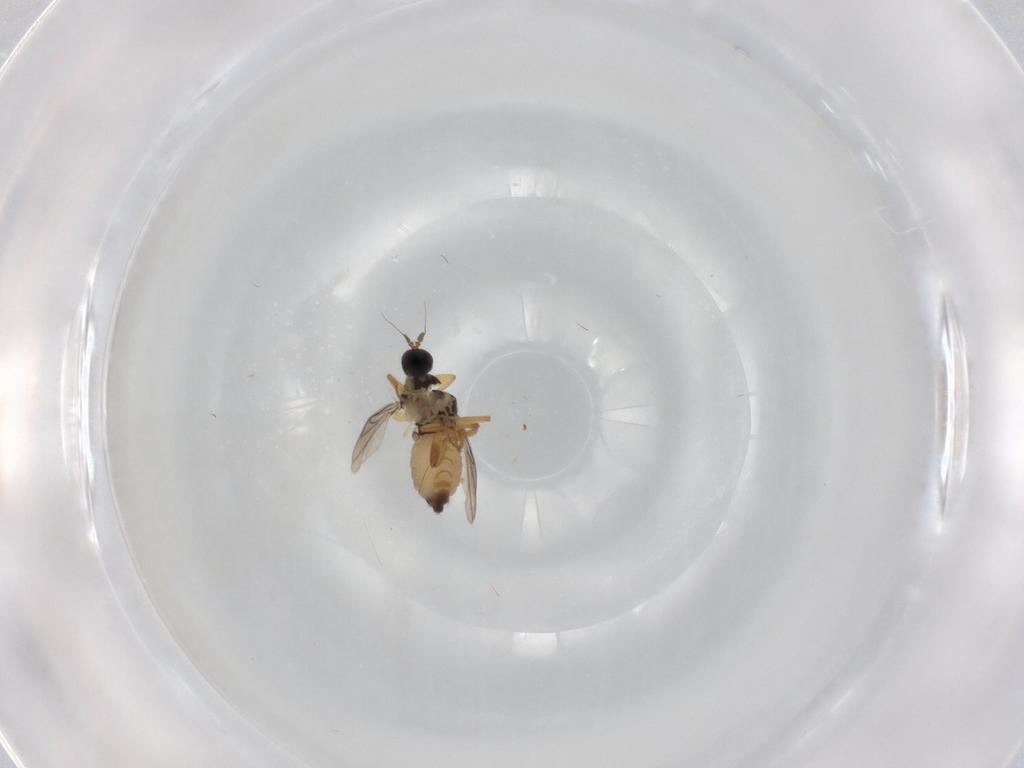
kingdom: Animalia
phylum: Arthropoda
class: Insecta
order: Diptera
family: Hybotidae
